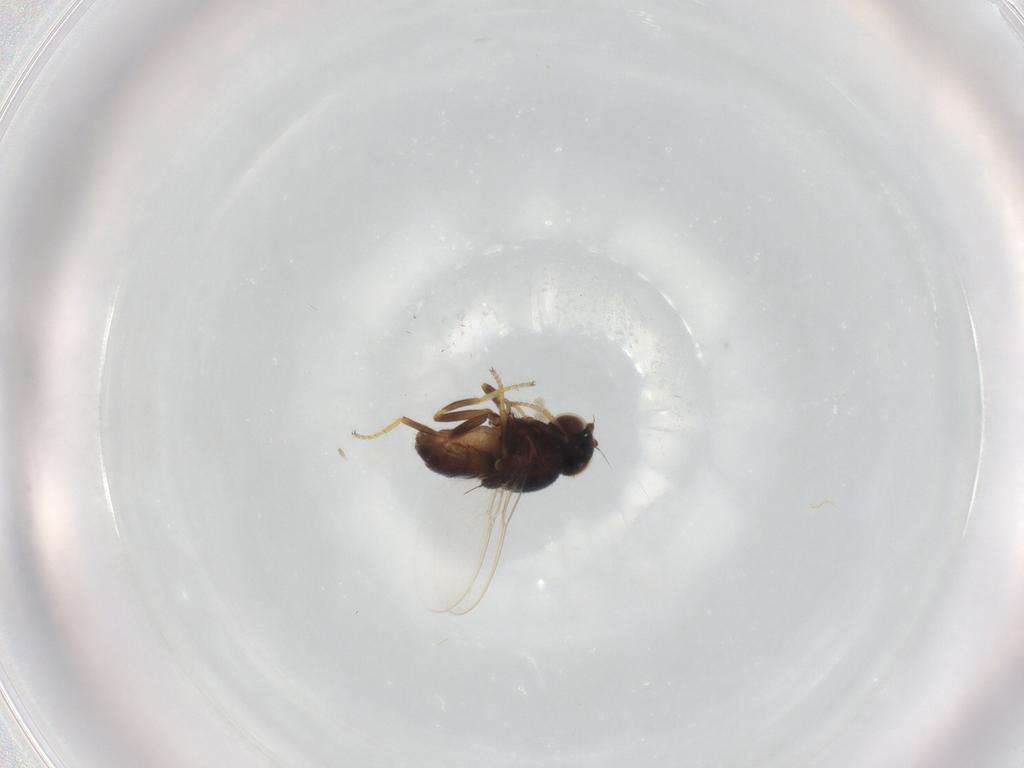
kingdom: Animalia
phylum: Arthropoda
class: Insecta
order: Diptera
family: Chloropidae
